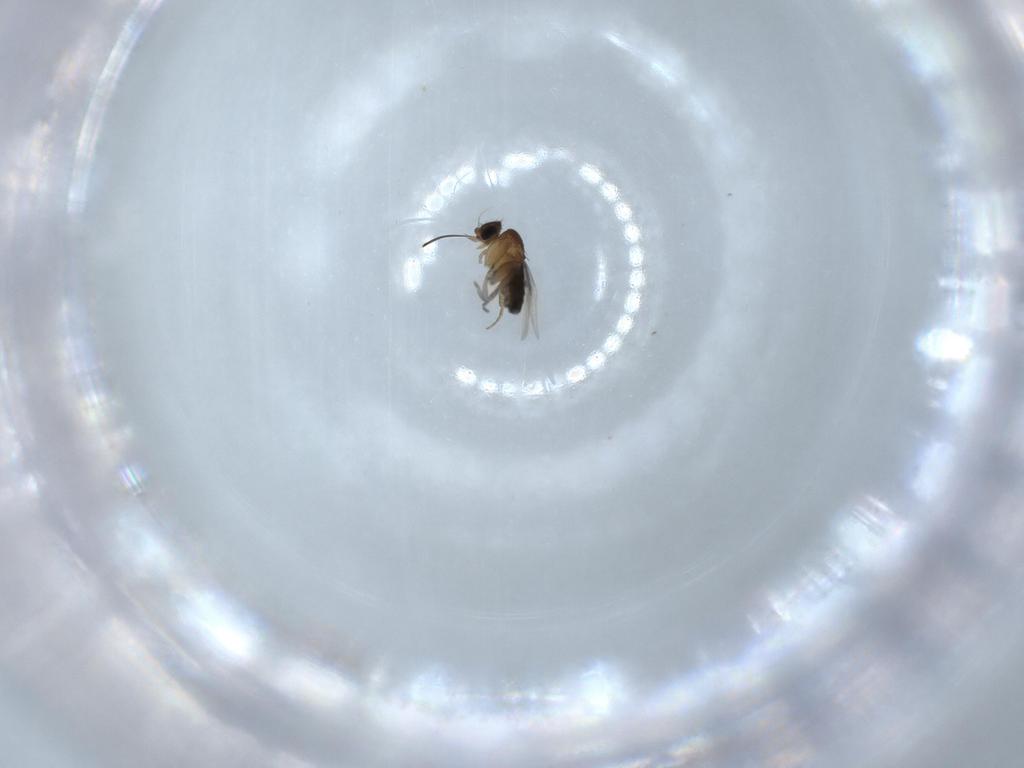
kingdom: Animalia
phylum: Arthropoda
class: Insecta
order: Diptera
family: Phoridae
